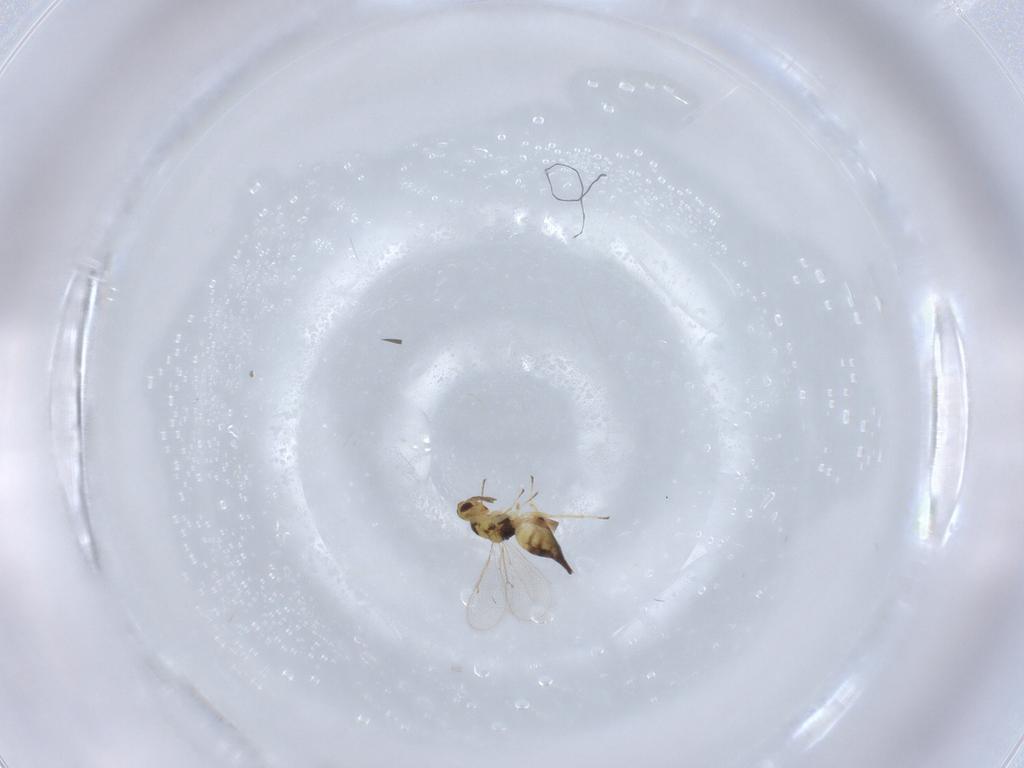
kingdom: Animalia
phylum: Arthropoda
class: Insecta
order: Hymenoptera
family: Eulophidae
